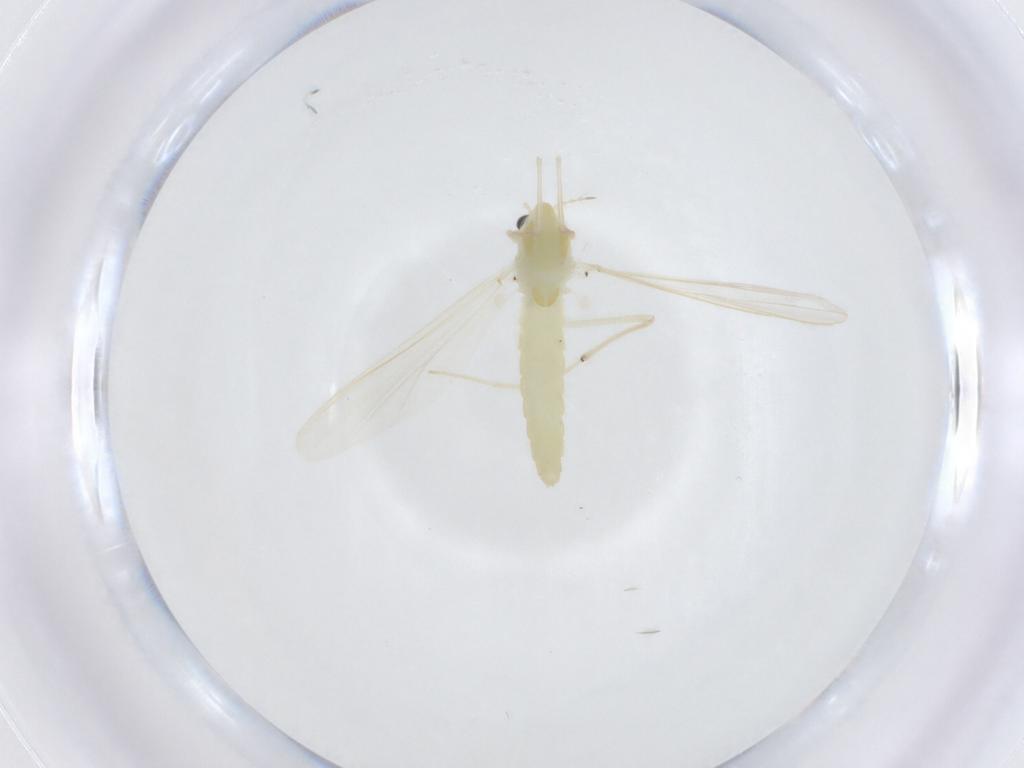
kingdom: Animalia
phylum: Arthropoda
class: Insecta
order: Diptera
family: Chironomidae
